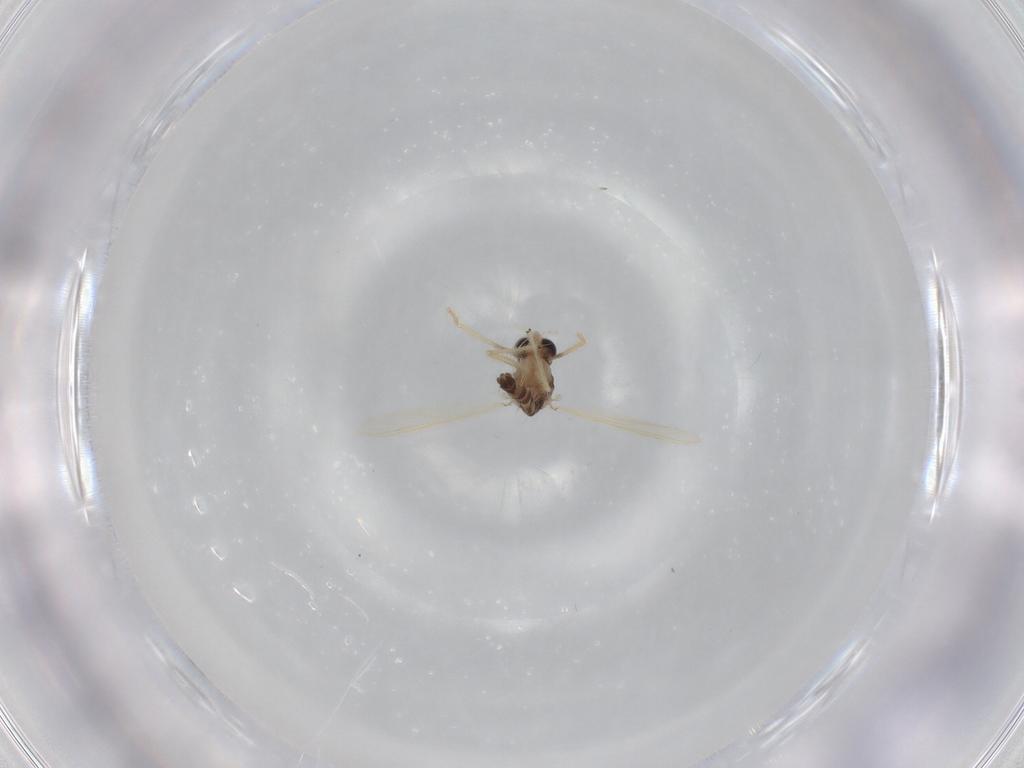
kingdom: Animalia
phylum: Arthropoda
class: Insecta
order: Diptera
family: Chironomidae
